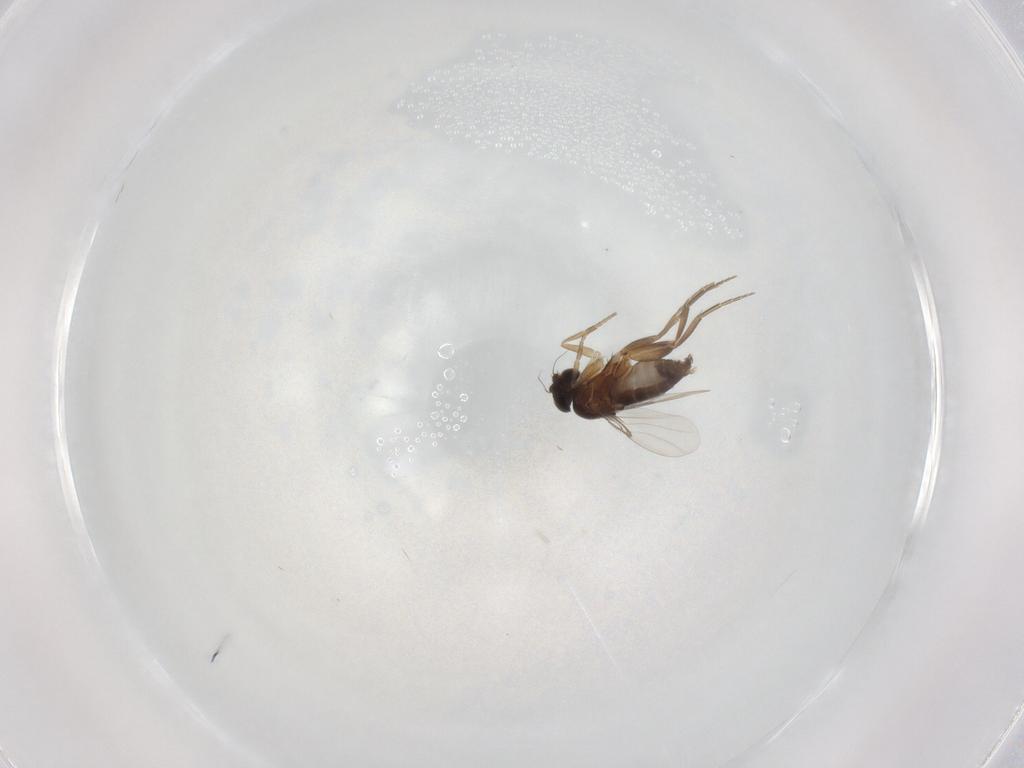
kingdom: Animalia
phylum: Arthropoda
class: Insecta
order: Diptera
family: Phoridae
